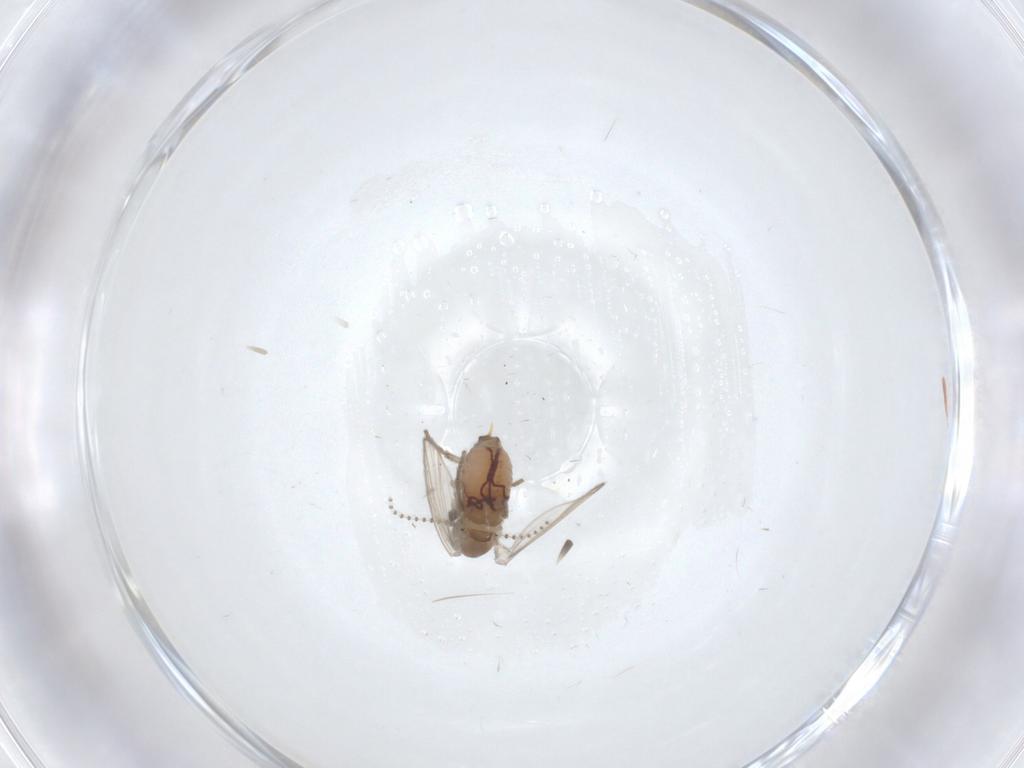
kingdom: Animalia
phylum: Arthropoda
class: Insecta
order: Diptera
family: Psychodidae
